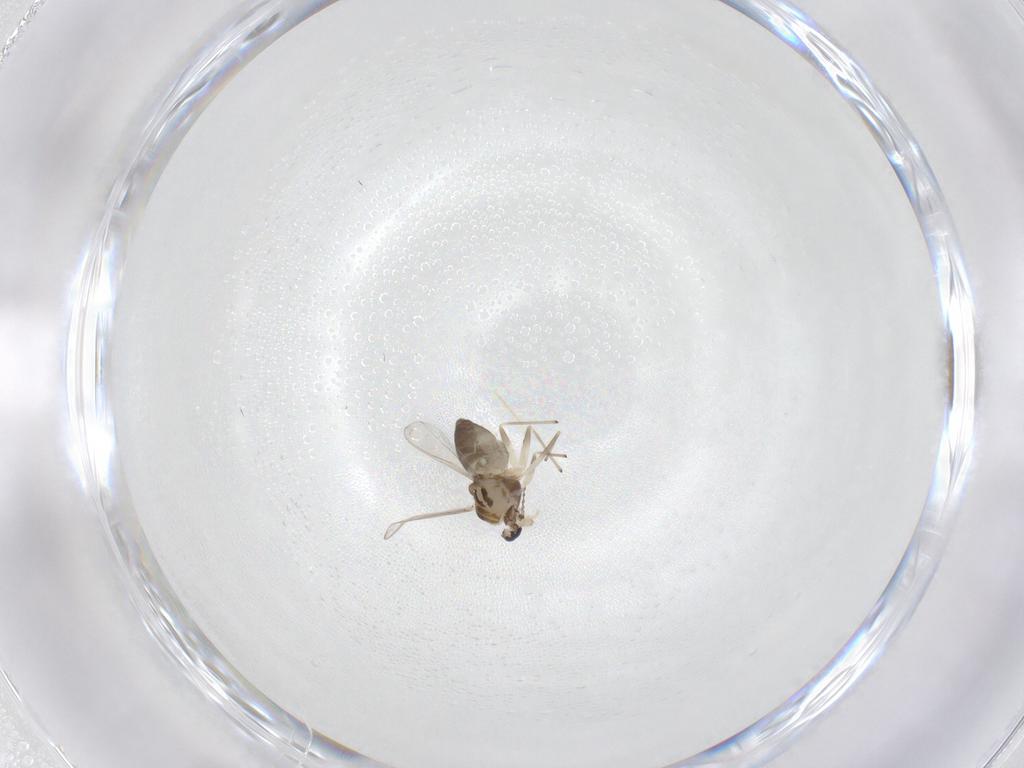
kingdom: Animalia
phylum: Arthropoda
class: Insecta
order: Diptera
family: Chironomidae
